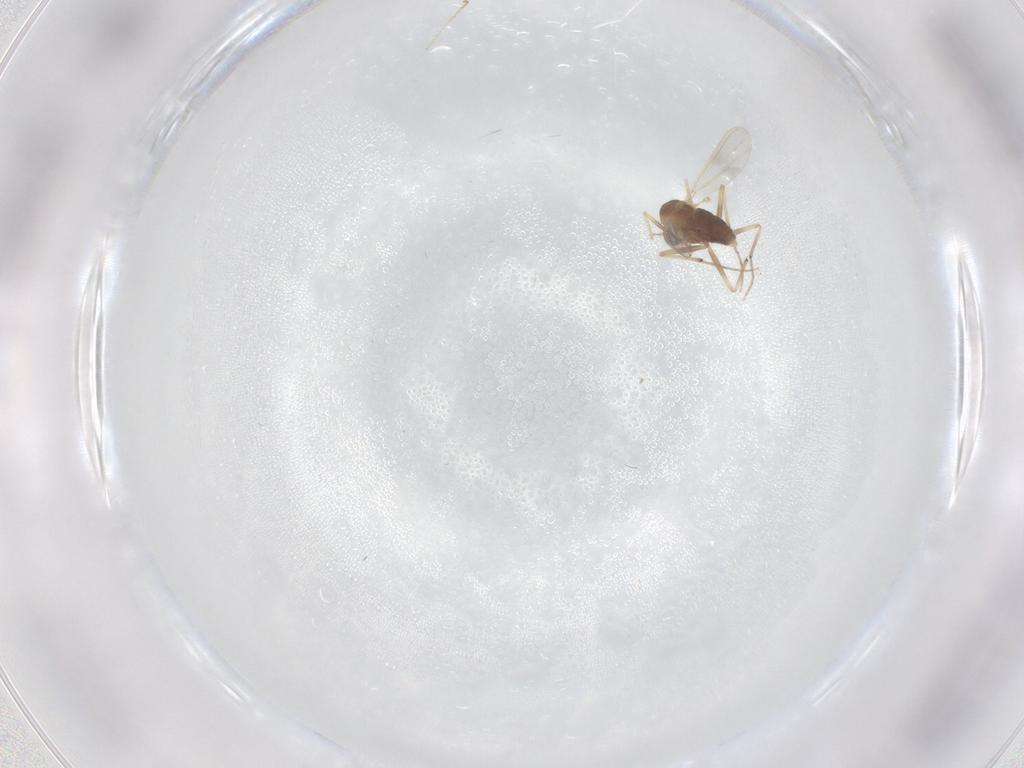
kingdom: Animalia
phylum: Arthropoda
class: Insecta
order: Diptera
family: Chironomidae
